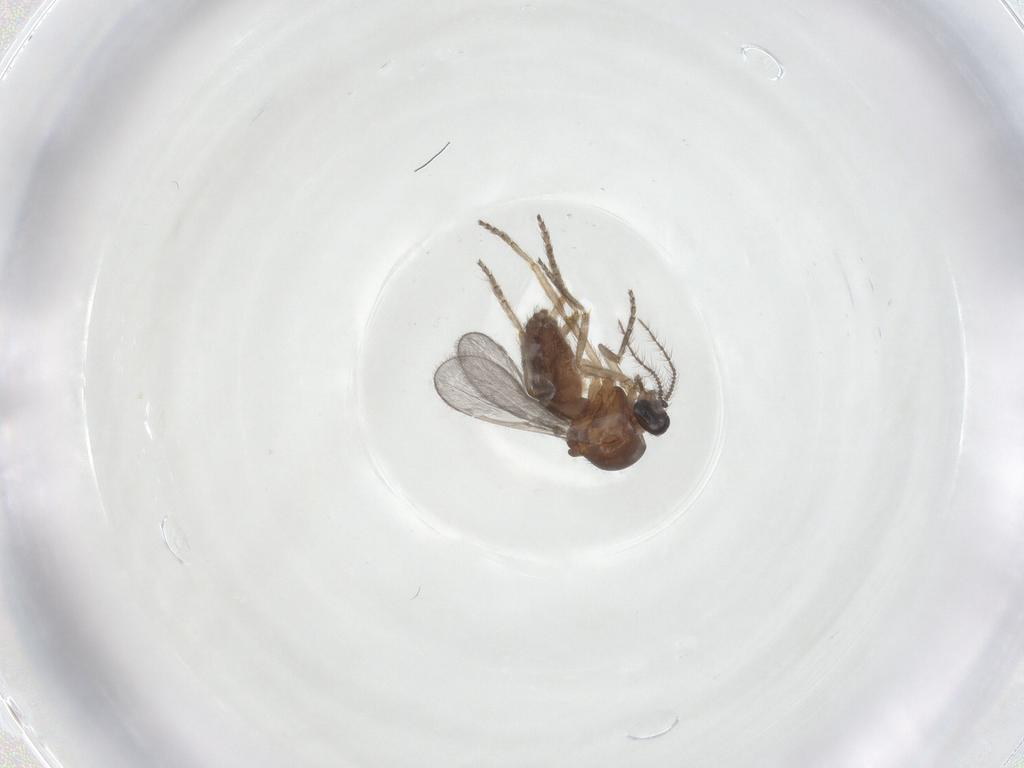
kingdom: Animalia
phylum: Arthropoda
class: Insecta
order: Diptera
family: Ceratopogonidae
